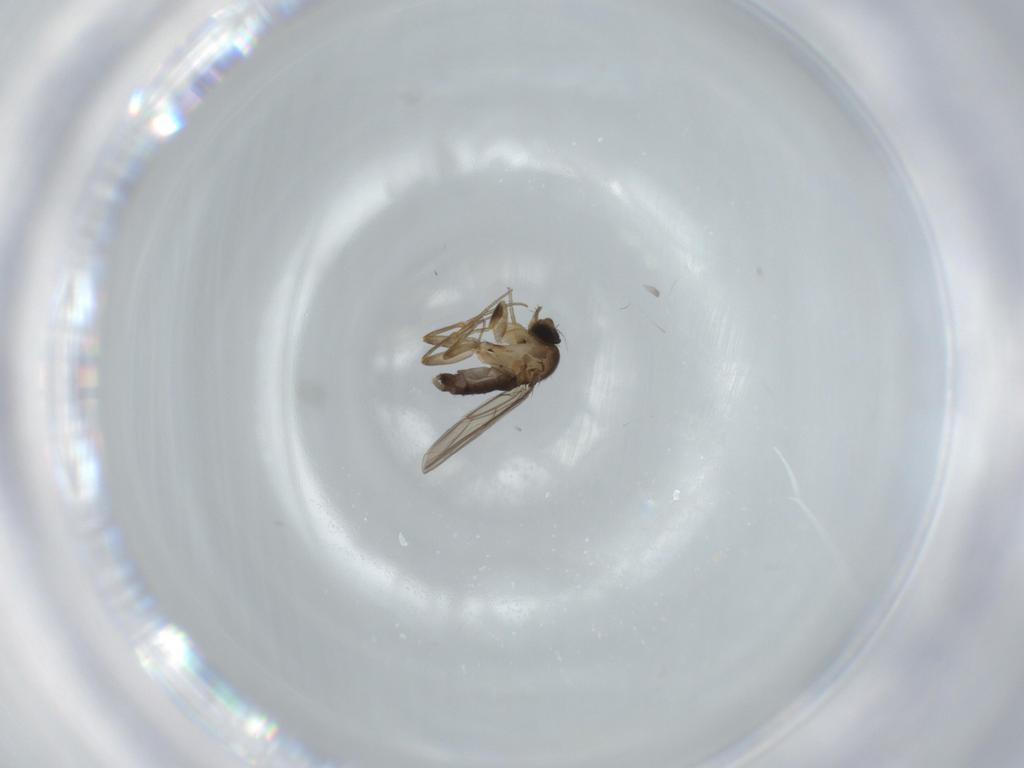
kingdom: Animalia
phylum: Arthropoda
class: Insecta
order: Diptera
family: Phoridae
